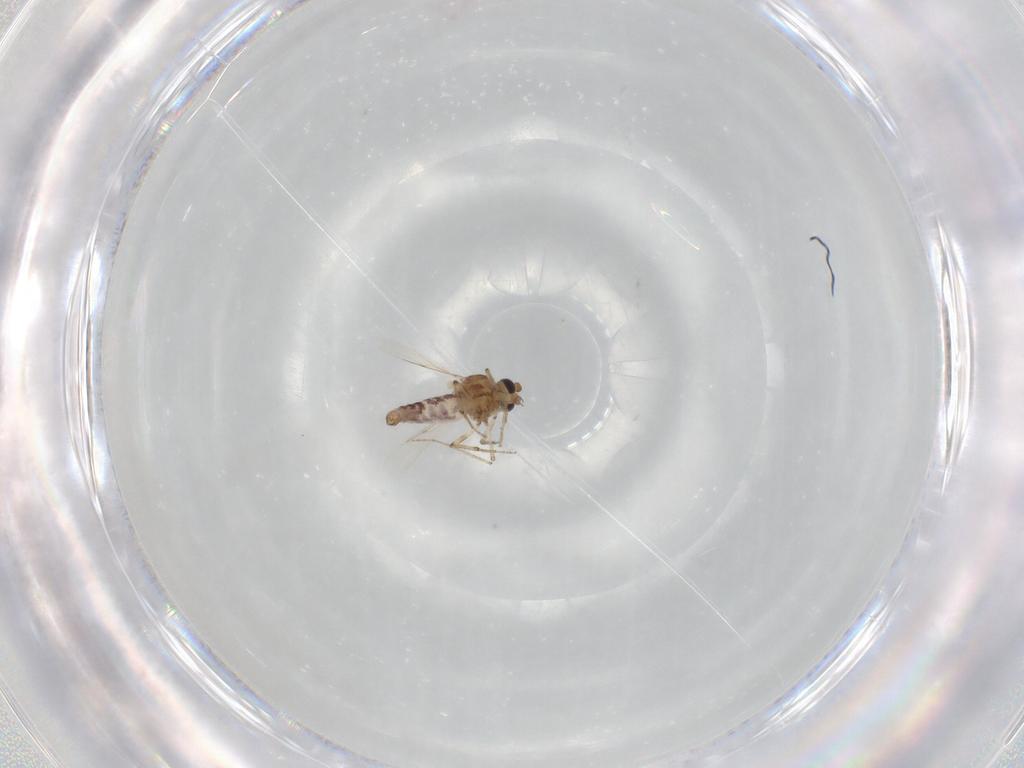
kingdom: Animalia
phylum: Arthropoda
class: Insecta
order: Diptera
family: Ceratopogonidae
